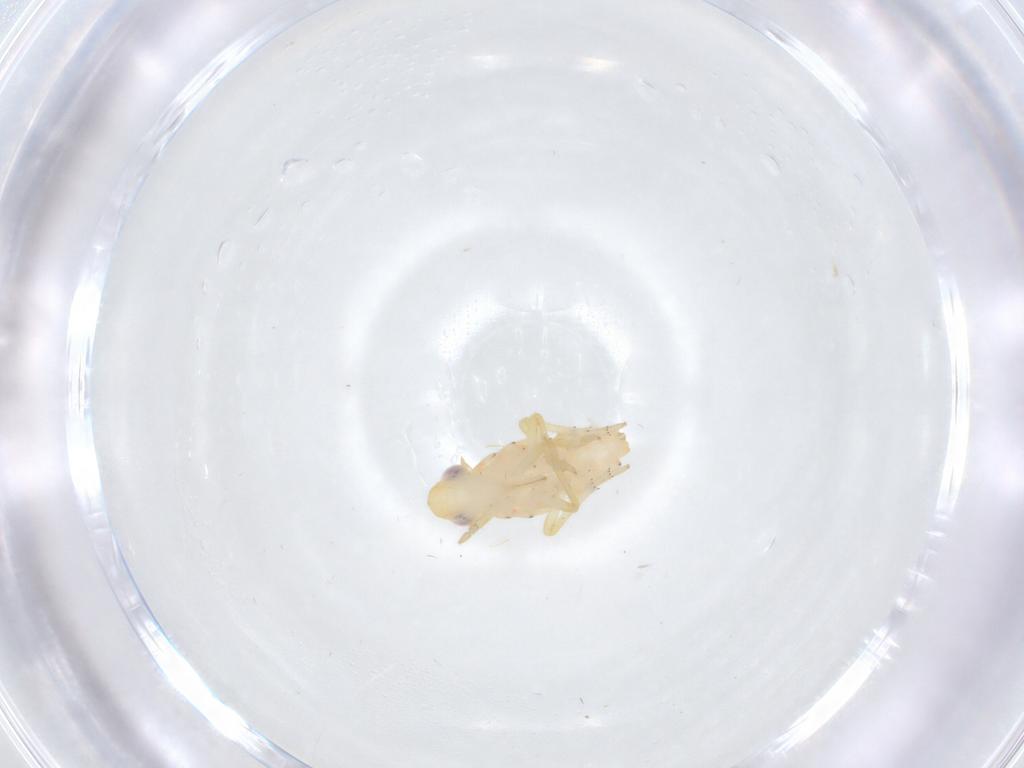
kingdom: Animalia
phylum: Arthropoda
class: Insecta
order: Hemiptera
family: Tropiduchidae
